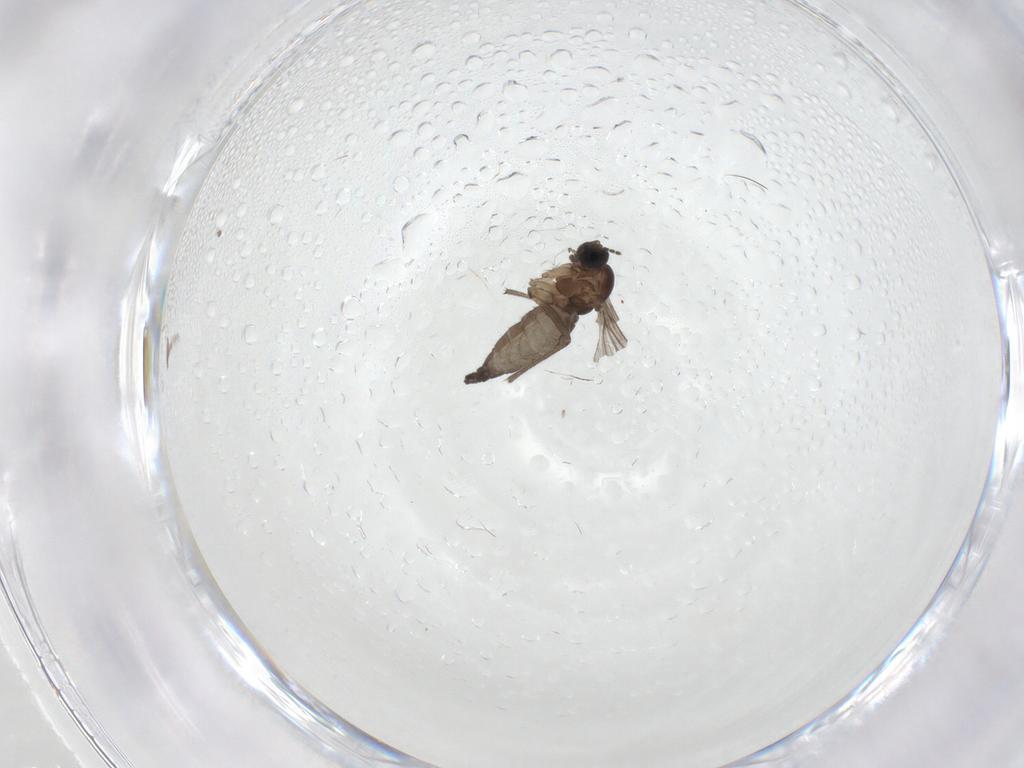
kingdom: Animalia
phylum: Arthropoda
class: Insecta
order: Diptera
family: Sciaridae
